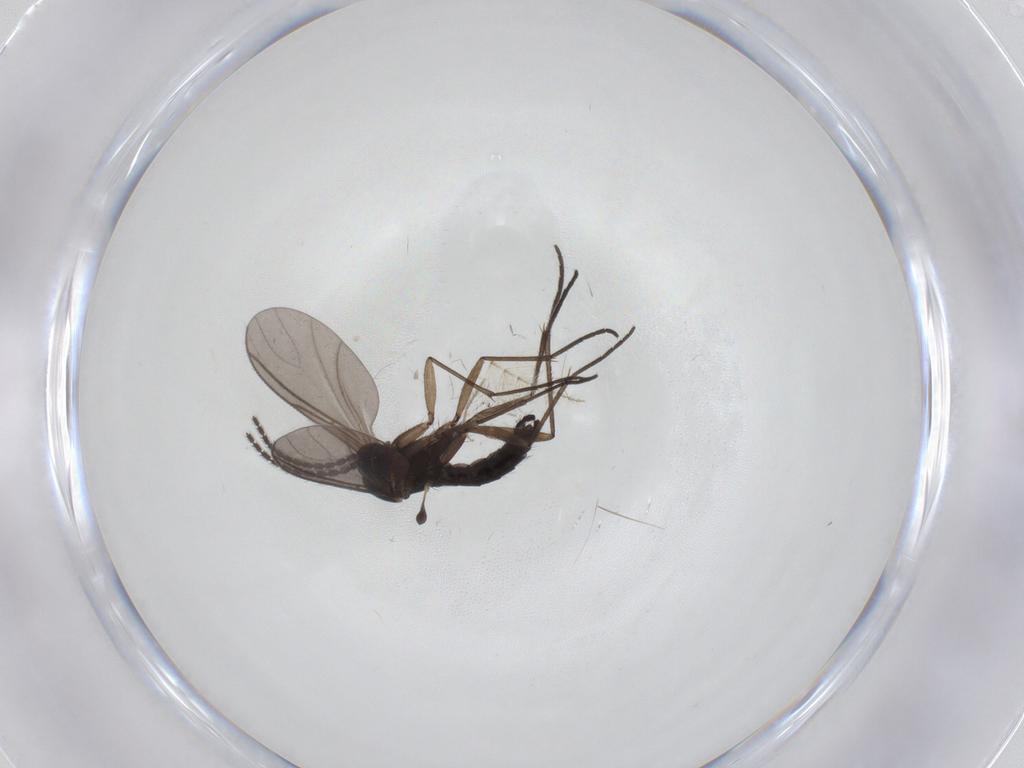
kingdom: Animalia
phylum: Arthropoda
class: Insecta
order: Diptera
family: Sciaridae
